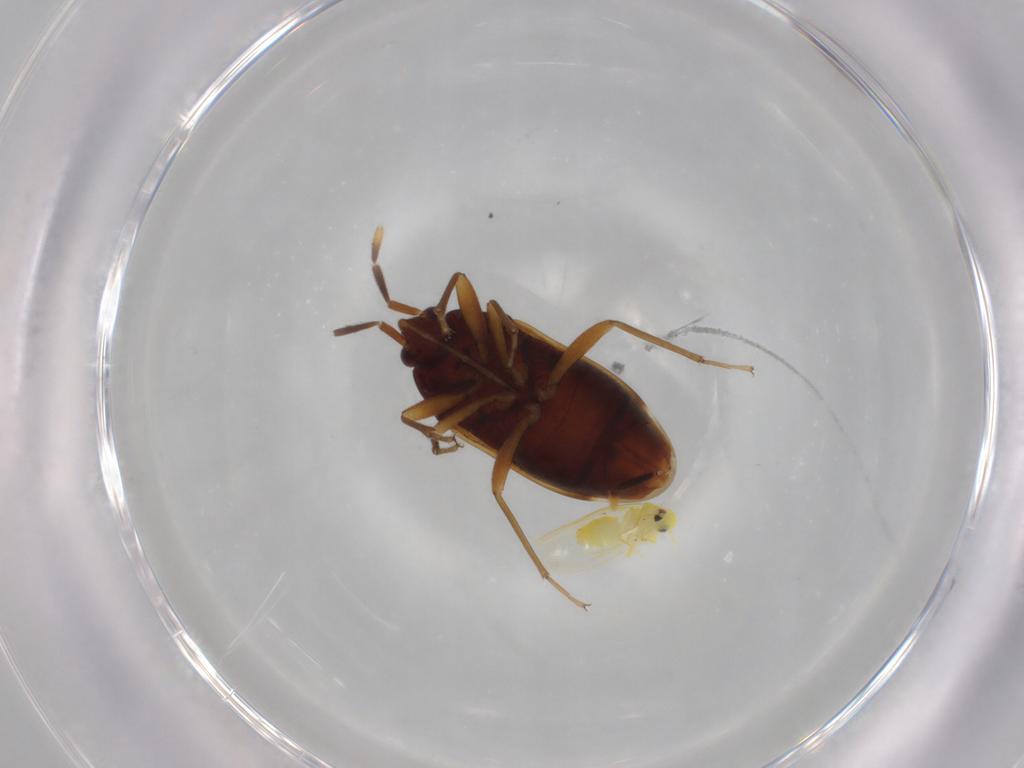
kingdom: Animalia
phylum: Arthropoda
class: Insecta
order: Hemiptera
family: Aleyrodidae
